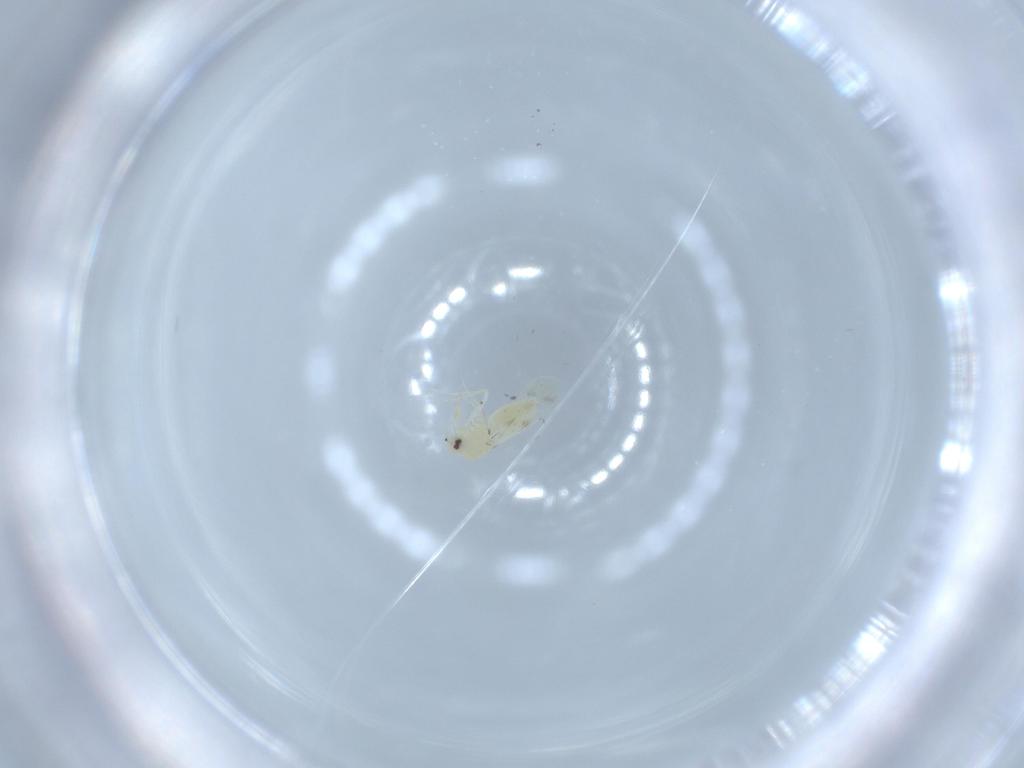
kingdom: Animalia
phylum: Arthropoda
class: Insecta
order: Hemiptera
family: Aleyrodidae
